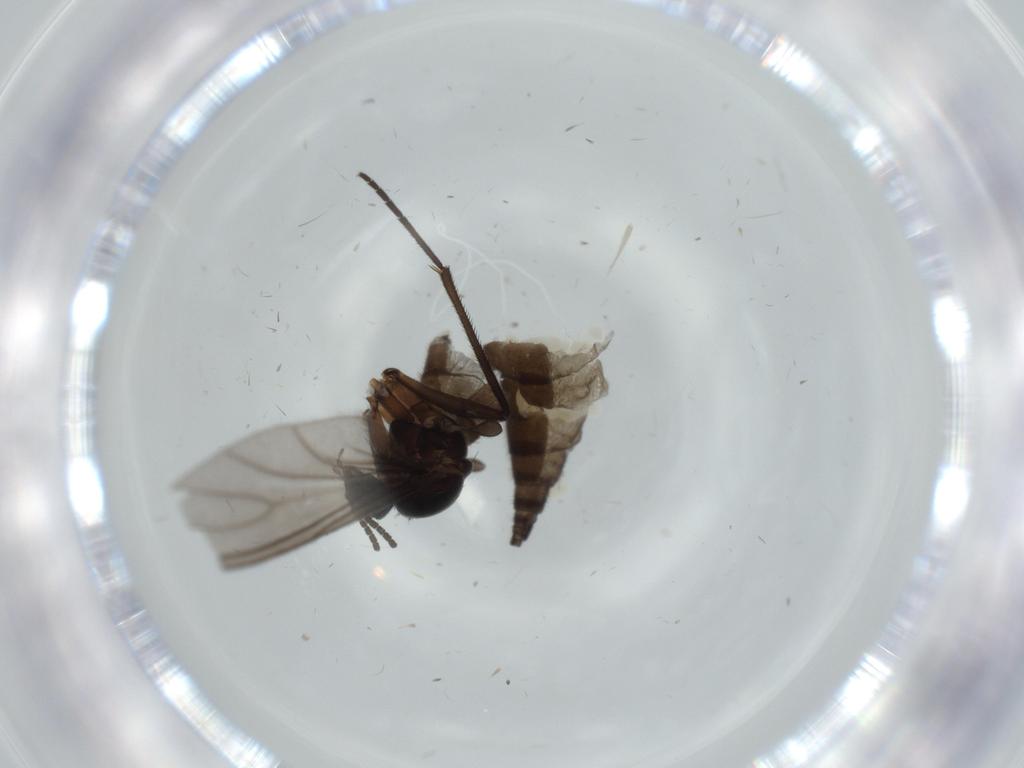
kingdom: Animalia
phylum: Arthropoda
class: Insecta
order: Diptera
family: Sciaridae
